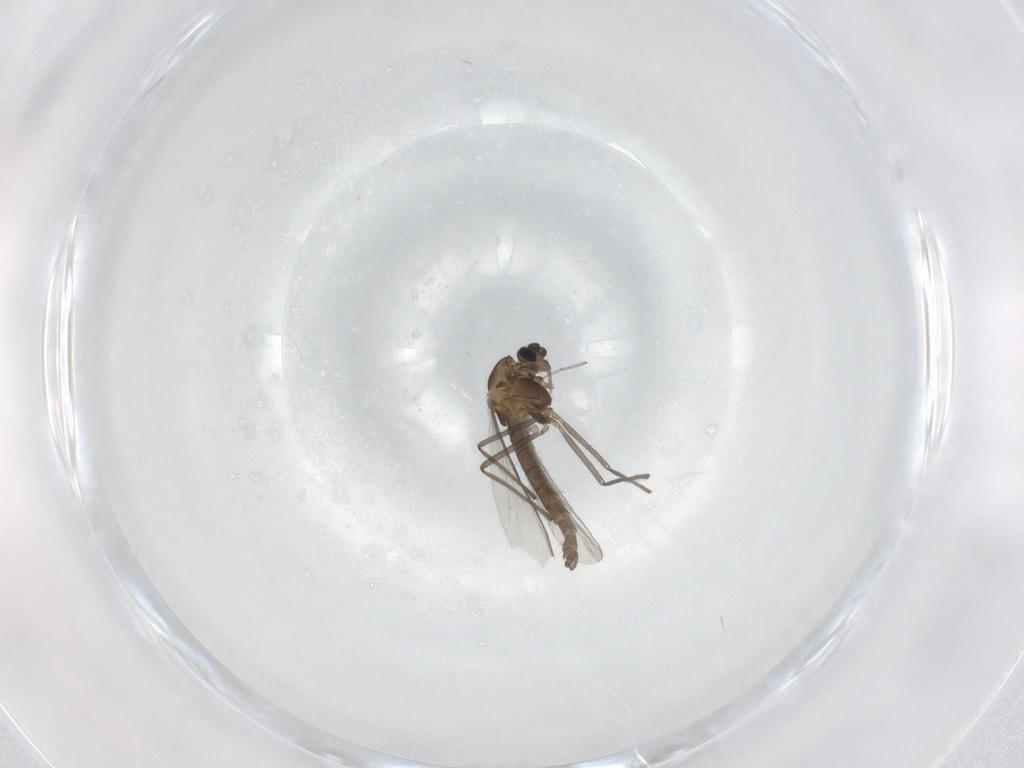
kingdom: Animalia
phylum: Arthropoda
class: Insecta
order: Diptera
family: Chironomidae
